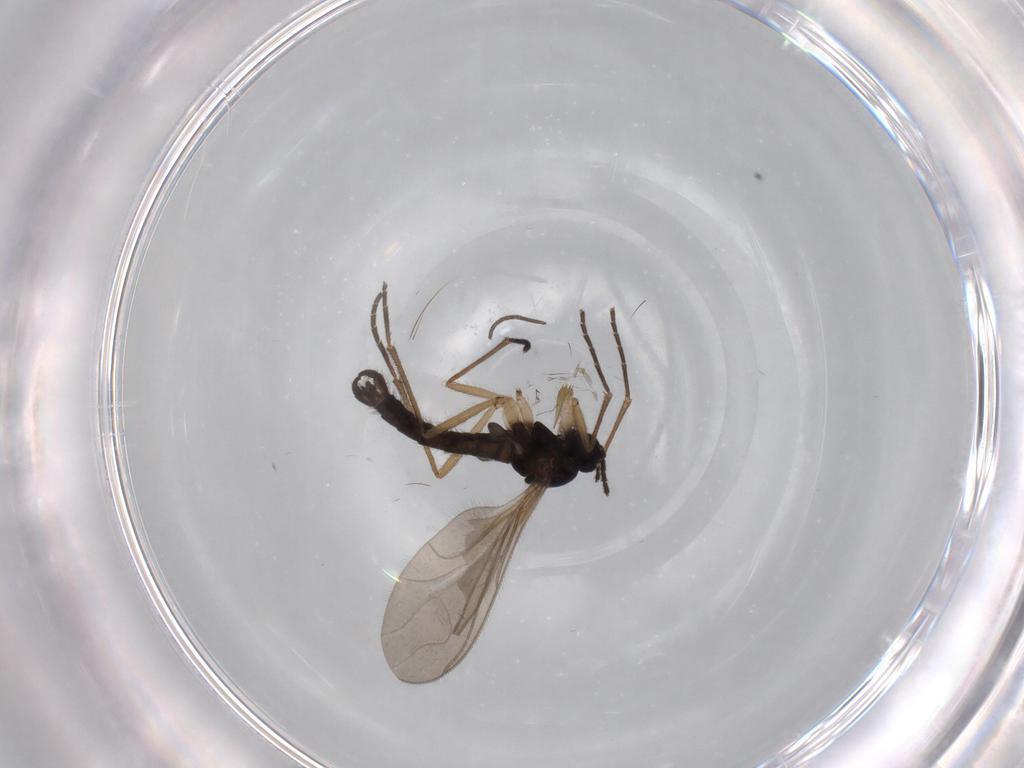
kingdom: Animalia
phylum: Arthropoda
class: Insecta
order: Diptera
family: Sciaridae
